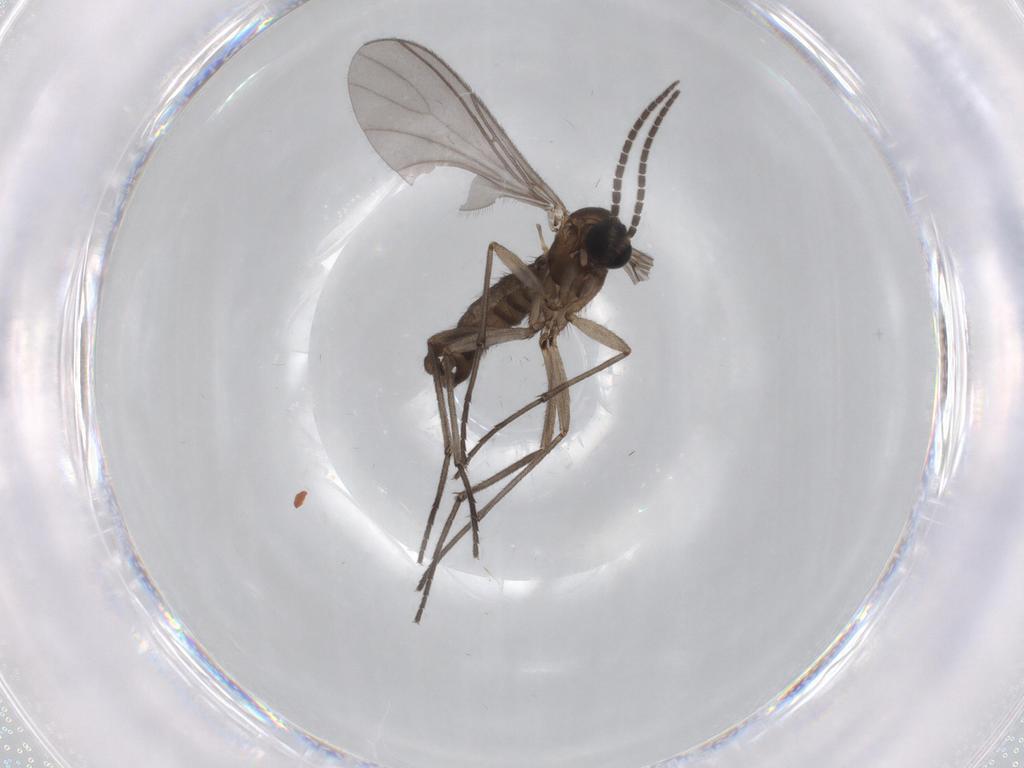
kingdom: Animalia
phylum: Arthropoda
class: Insecta
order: Diptera
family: Sciaridae
